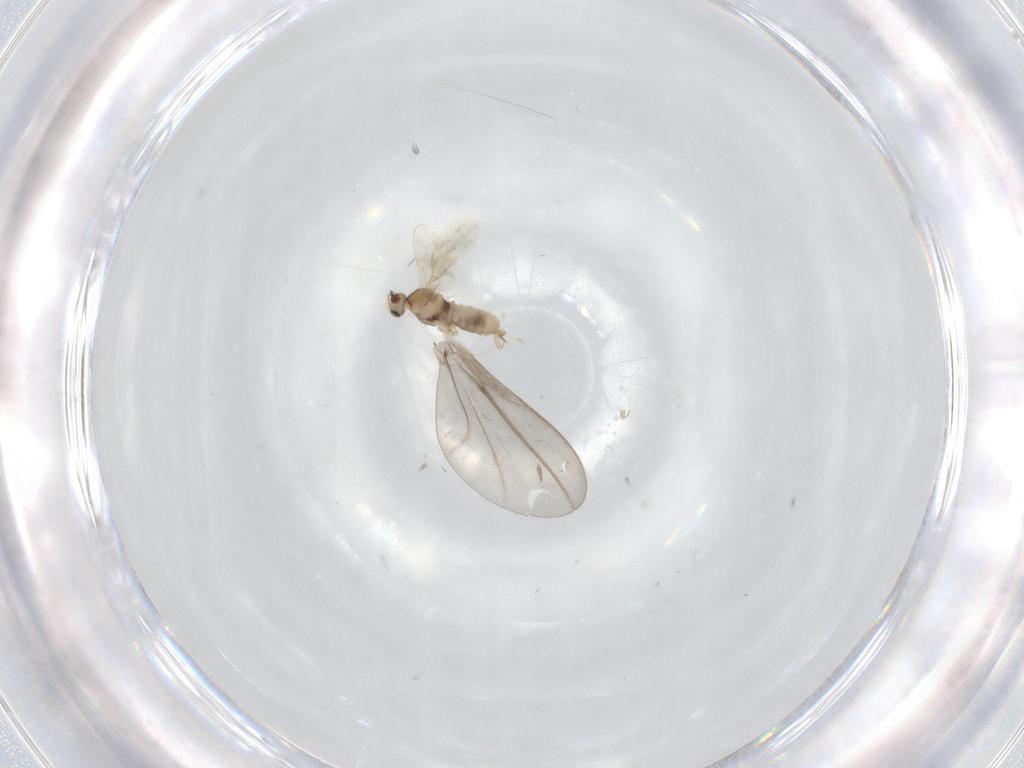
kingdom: Animalia
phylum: Arthropoda
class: Insecta
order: Diptera
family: Cecidomyiidae
